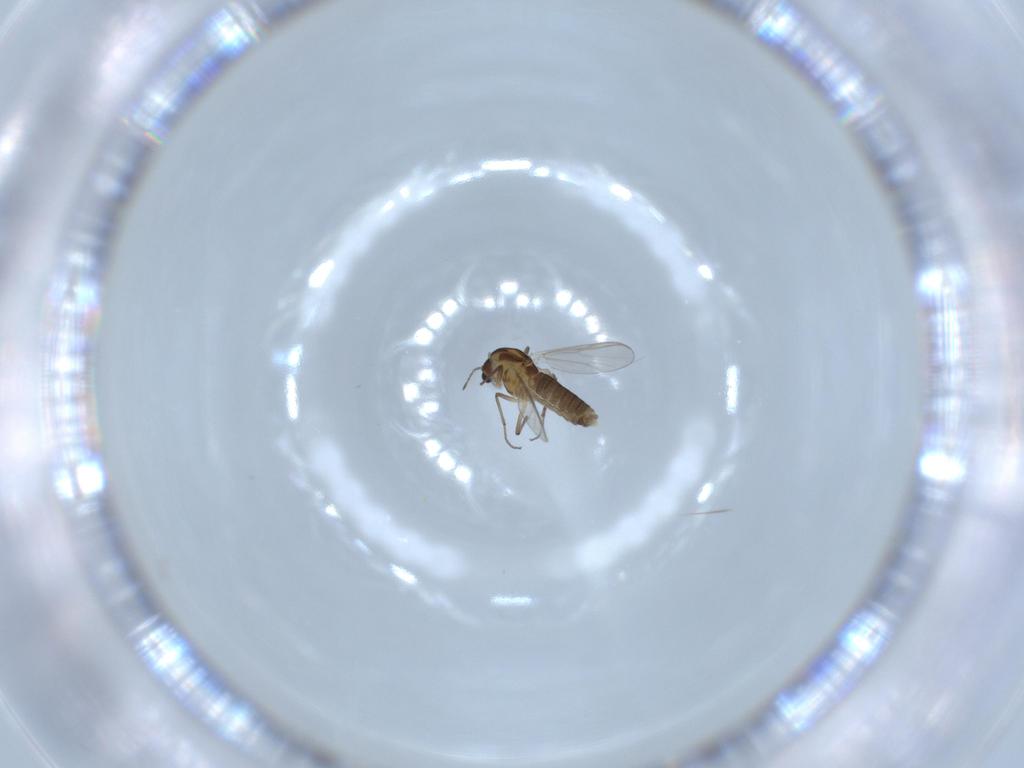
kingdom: Animalia
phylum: Arthropoda
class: Insecta
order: Diptera
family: Chironomidae
